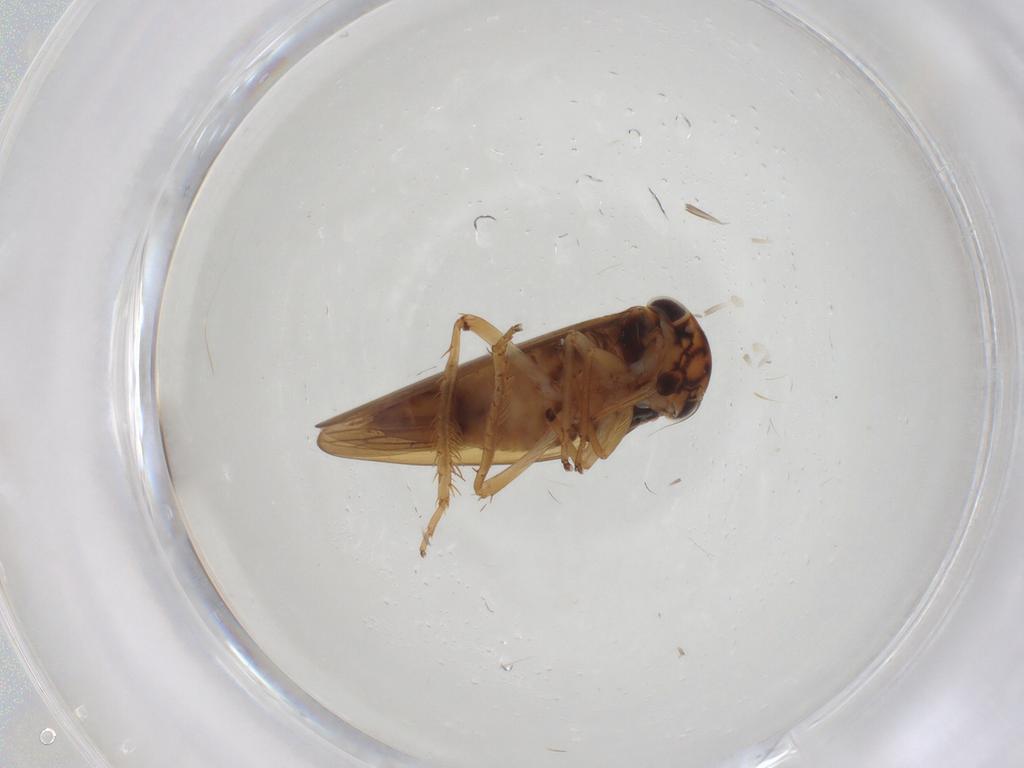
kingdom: Animalia
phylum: Arthropoda
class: Insecta
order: Hemiptera
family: Cicadellidae
